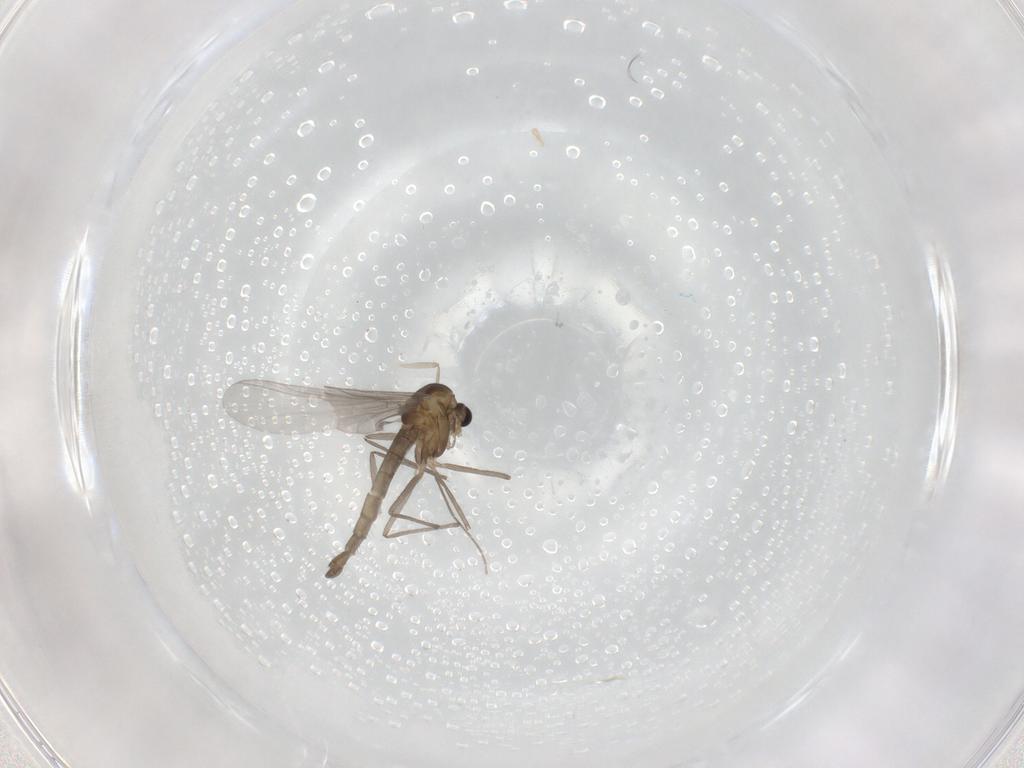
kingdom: Animalia
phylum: Arthropoda
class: Insecta
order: Diptera
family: Chironomidae
